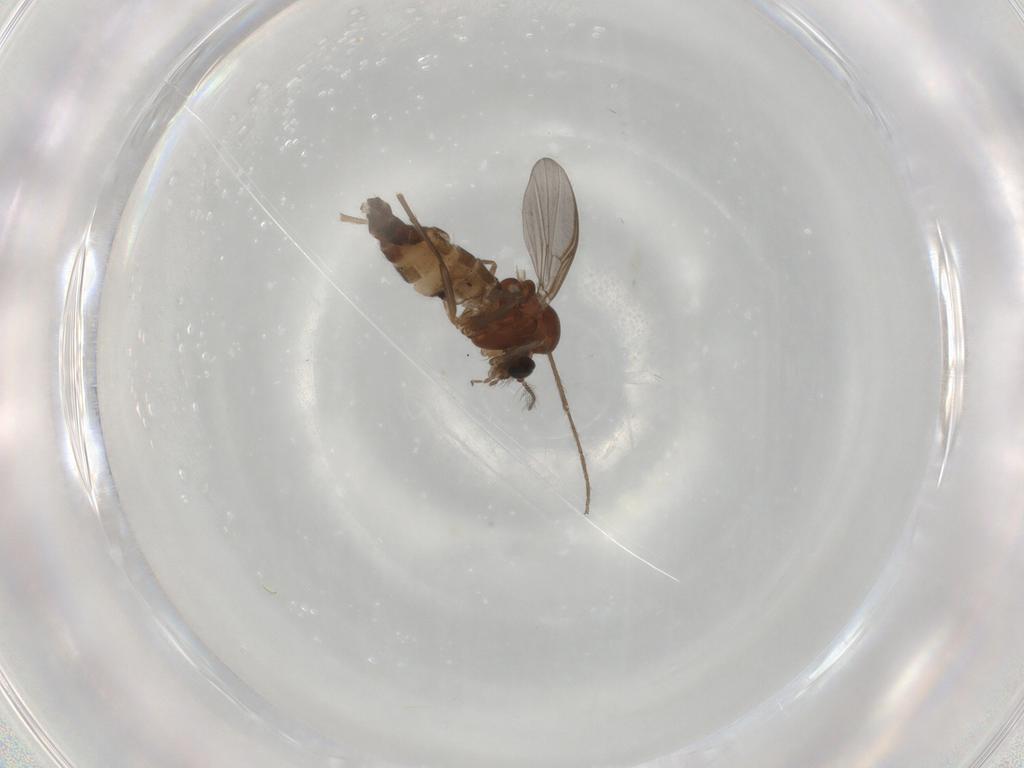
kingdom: Animalia
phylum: Arthropoda
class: Insecta
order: Diptera
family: Chironomidae
